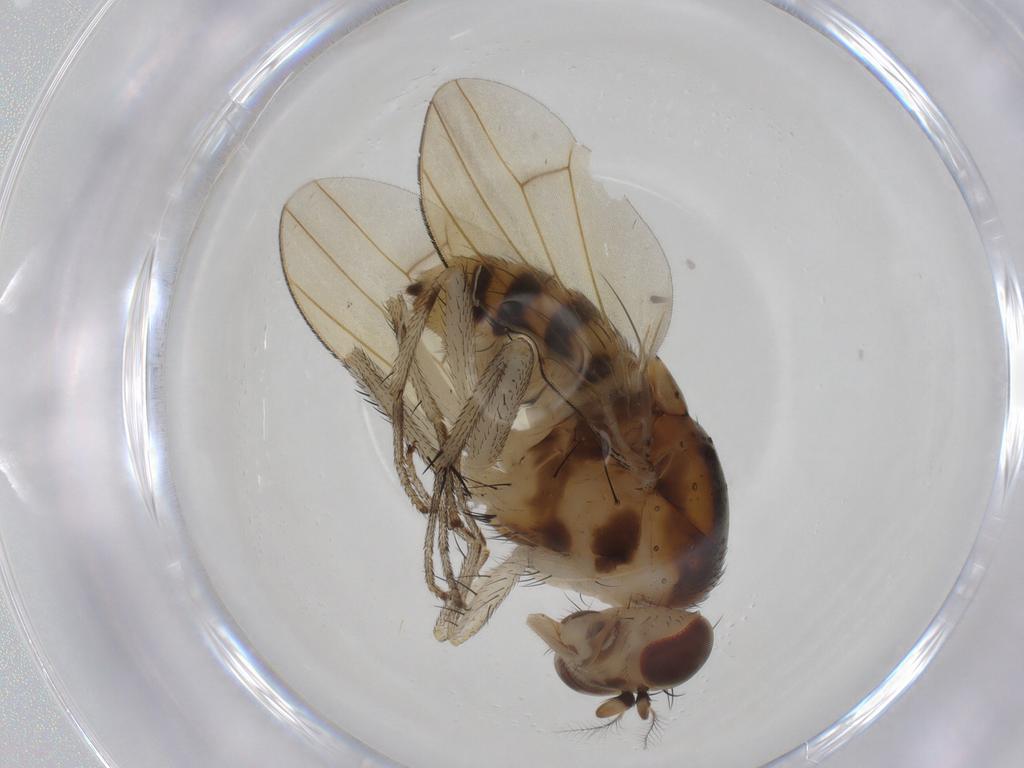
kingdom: Animalia
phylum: Arthropoda
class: Insecta
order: Diptera
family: Lauxaniidae
